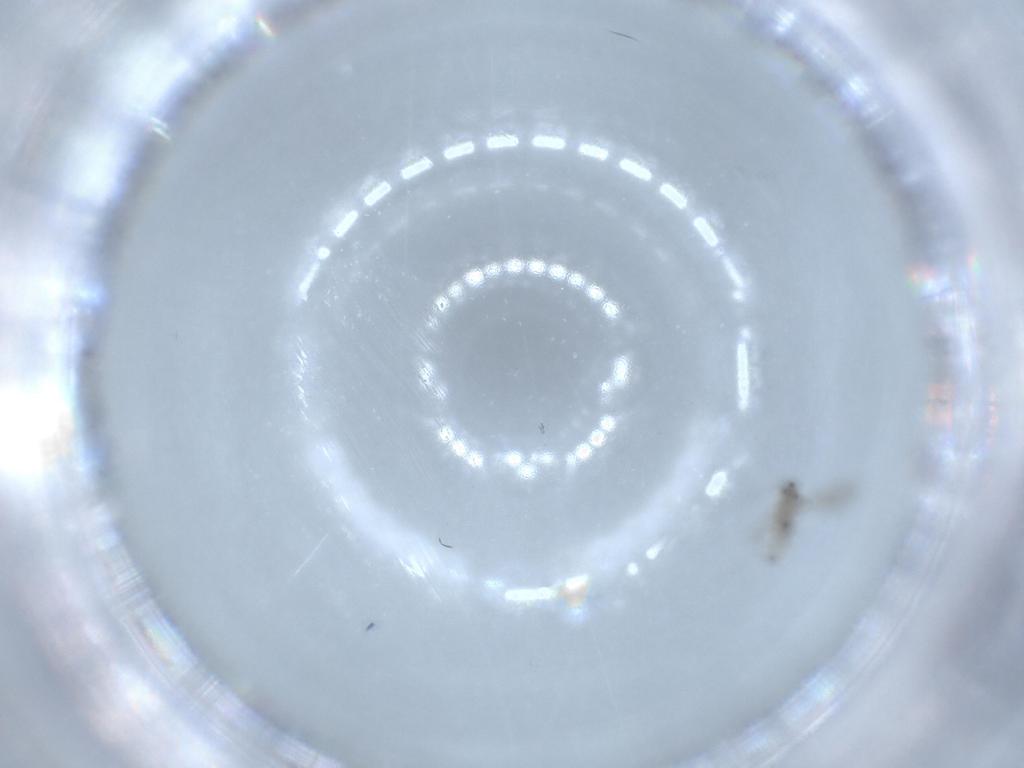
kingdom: Animalia
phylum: Arthropoda
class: Insecta
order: Diptera
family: Cecidomyiidae
